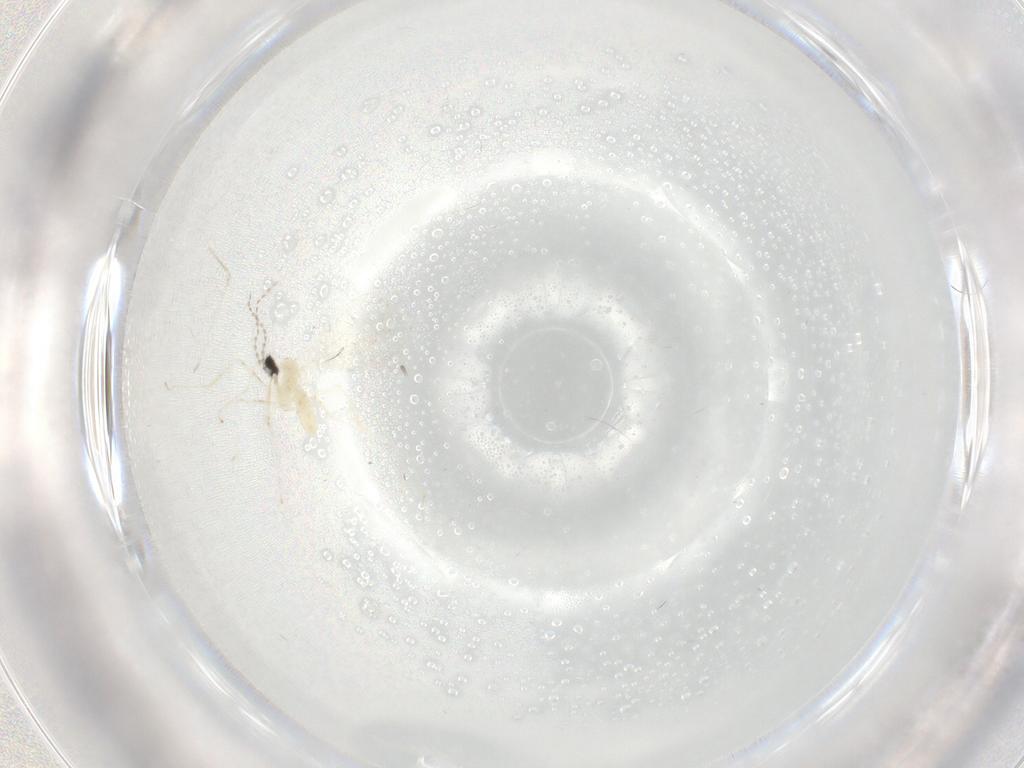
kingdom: Animalia
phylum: Arthropoda
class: Insecta
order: Diptera
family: Cecidomyiidae
